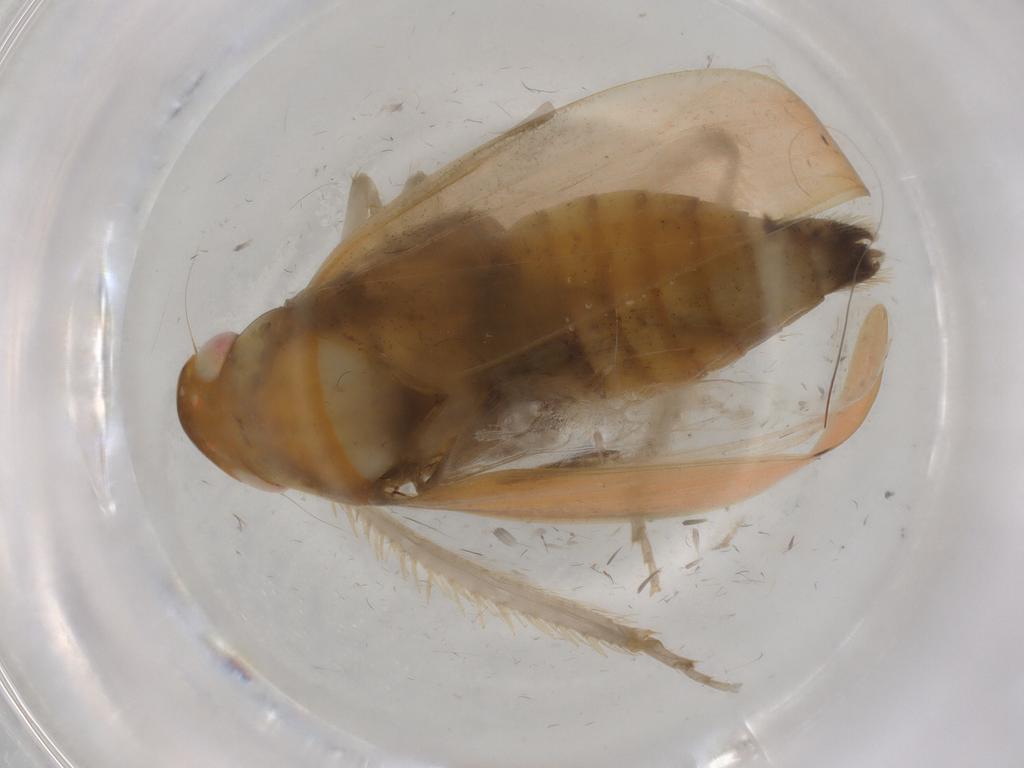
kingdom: Animalia
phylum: Arthropoda
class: Insecta
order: Hemiptera
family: Cicadellidae
